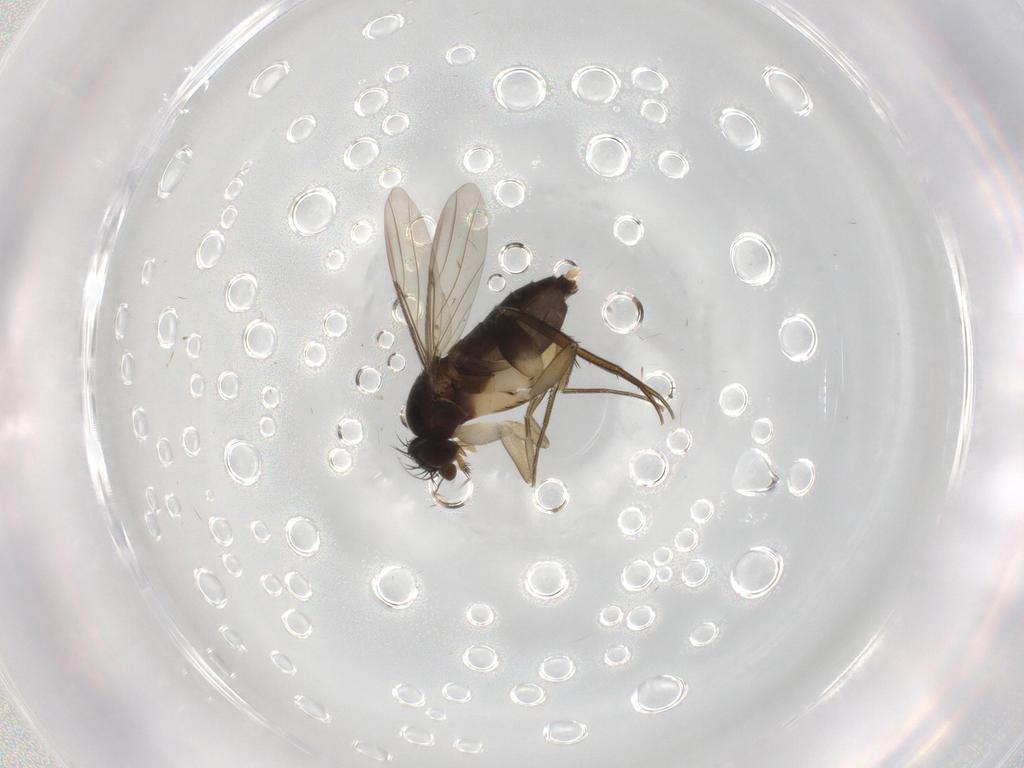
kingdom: Animalia
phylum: Arthropoda
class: Insecta
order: Diptera
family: Phoridae
